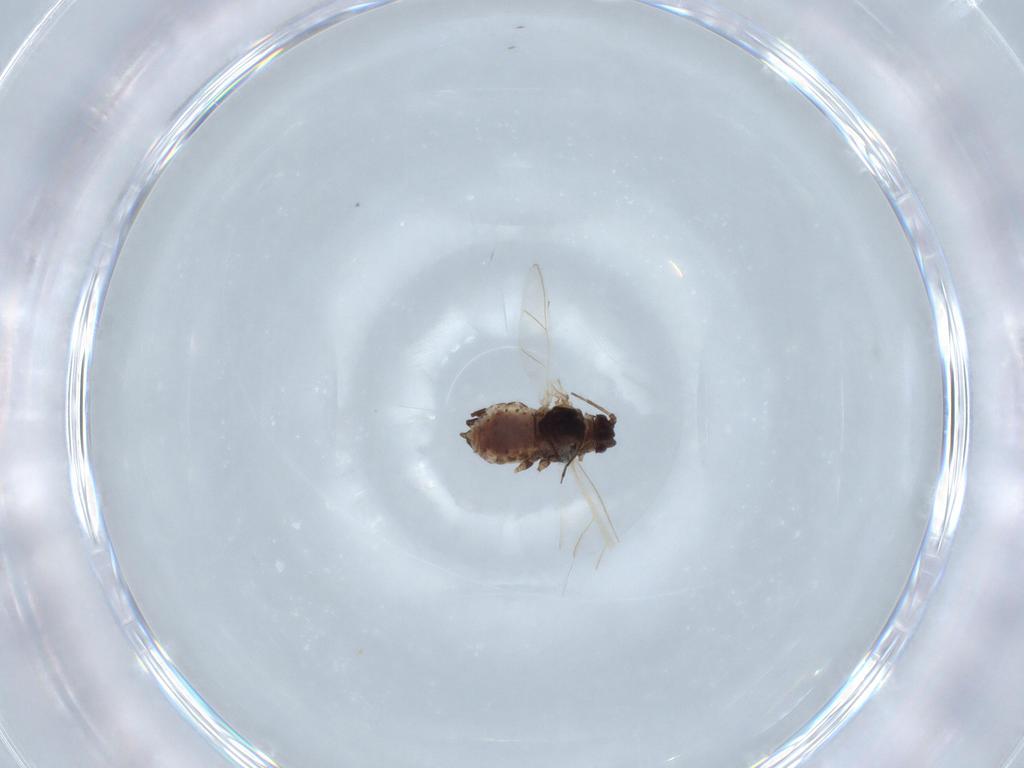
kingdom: Animalia
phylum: Arthropoda
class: Insecta
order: Hemiptera
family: Aphididae
